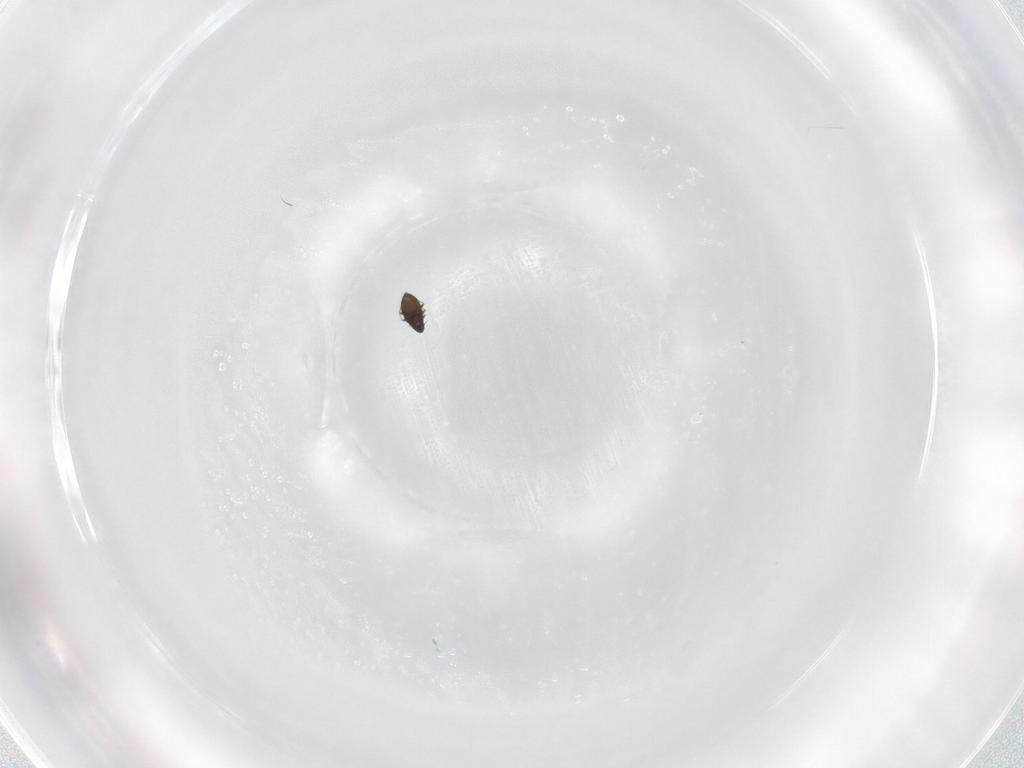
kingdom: Animalia
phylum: Arthropoda
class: Insecta
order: Coleoptera
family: Staphylinidae
